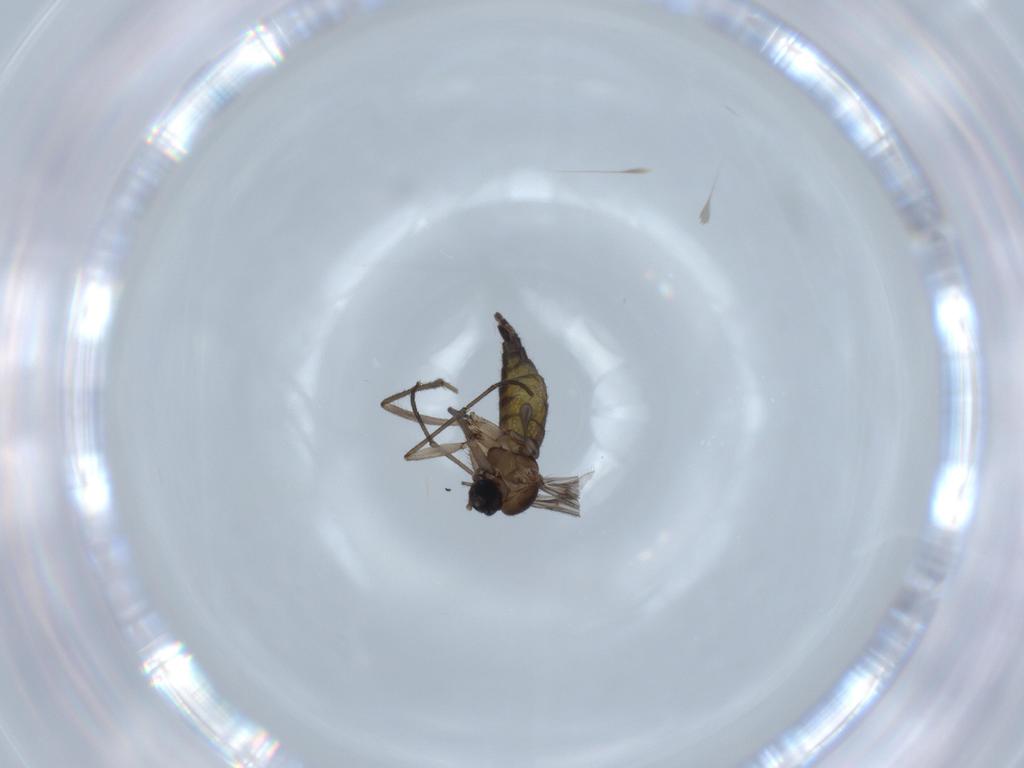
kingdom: Animalia
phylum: Arthropoda
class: Insecta
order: Diptera
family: Sciaridae
